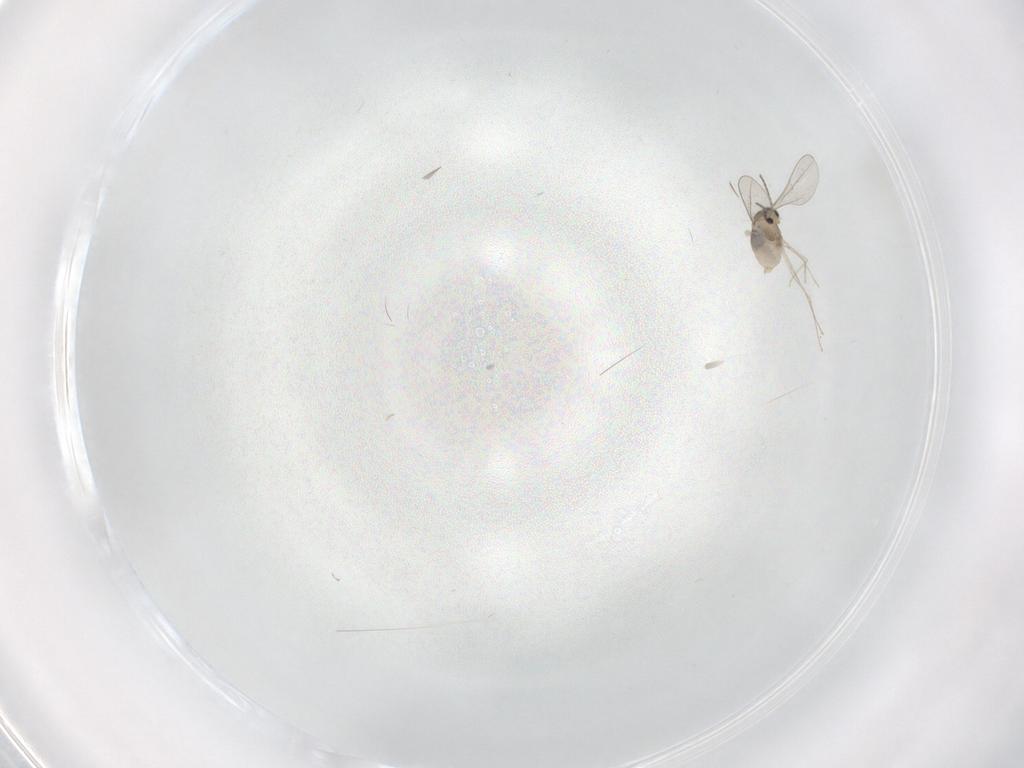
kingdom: Animalia
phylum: Arthropoda
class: Insecta
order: Diptera
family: Cecidomyiidae
